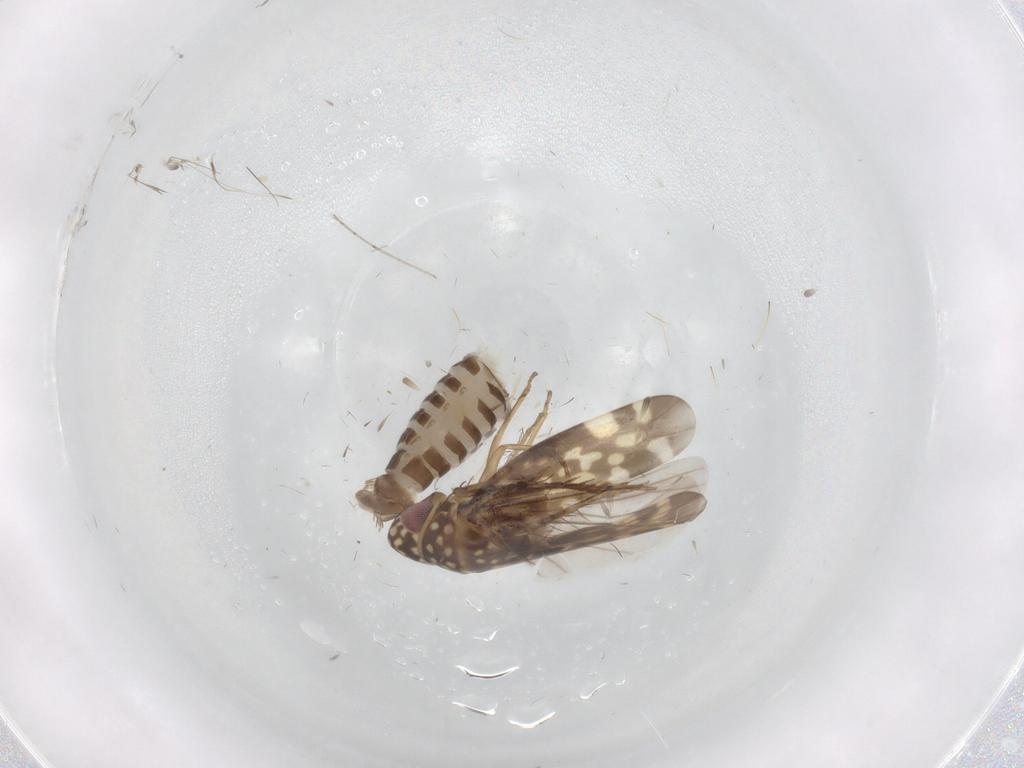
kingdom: Animalia
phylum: Arthropoda
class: Insecta
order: Hemiptera
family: Cicadellidae
